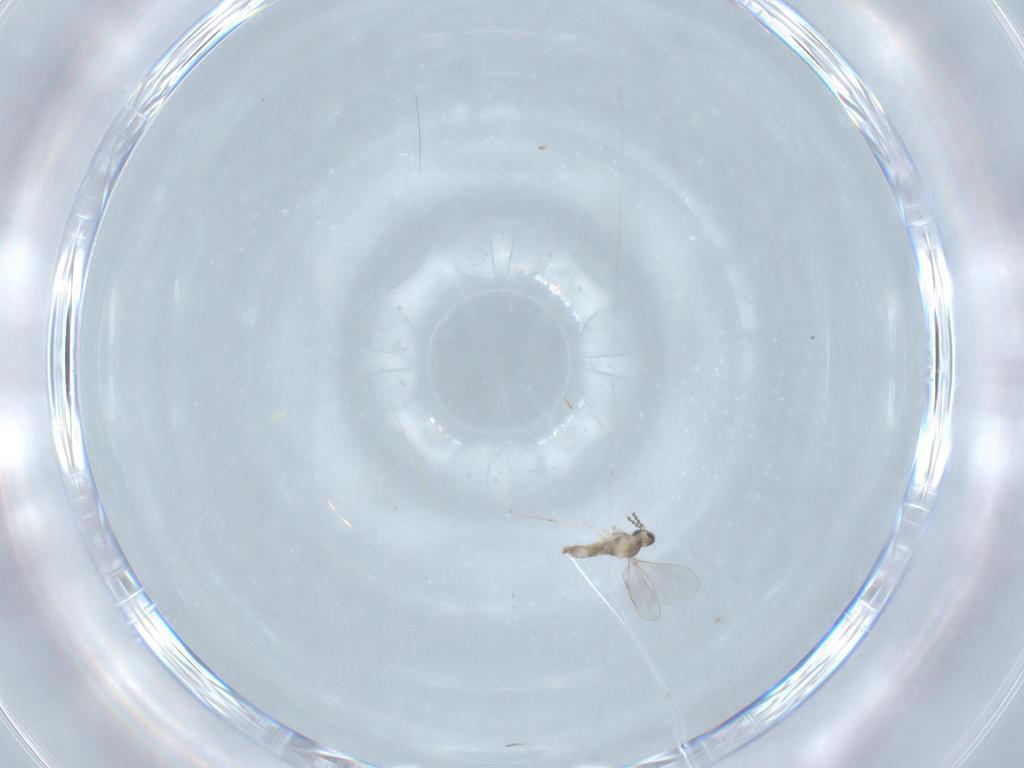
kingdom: Animalia
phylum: Arthropoda
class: Insecta
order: Diptera
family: Cecidomyiidae
